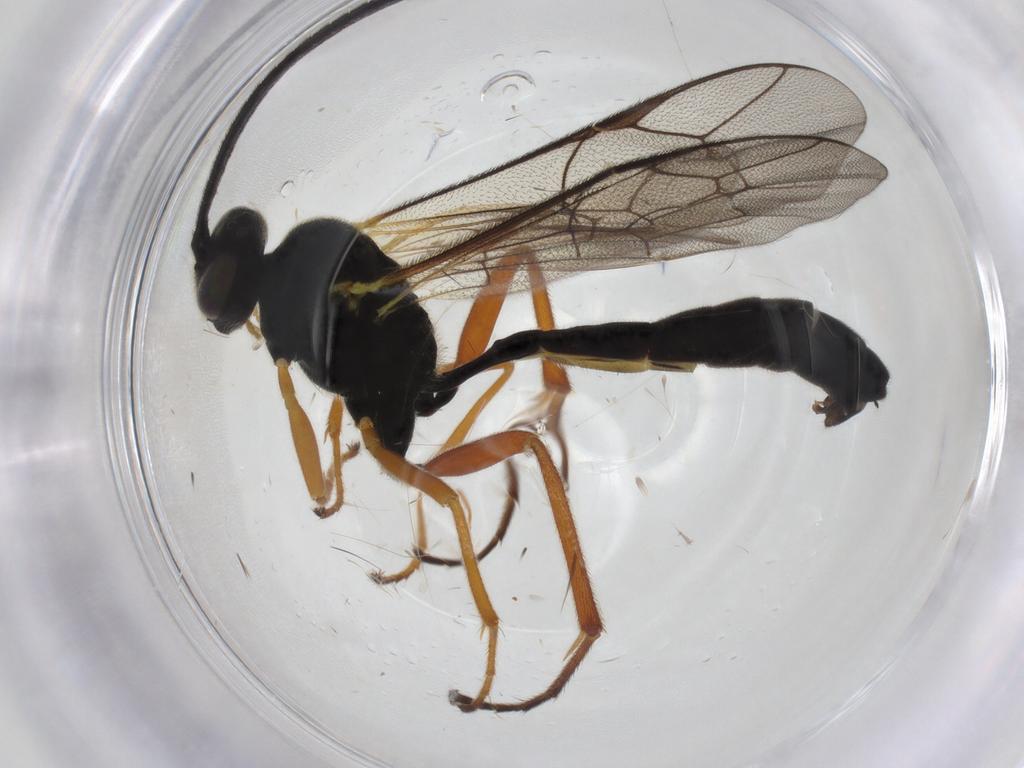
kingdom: Animalia
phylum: Arthropoda
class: Insecta
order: Hymenoptera
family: Ichneumonidae
